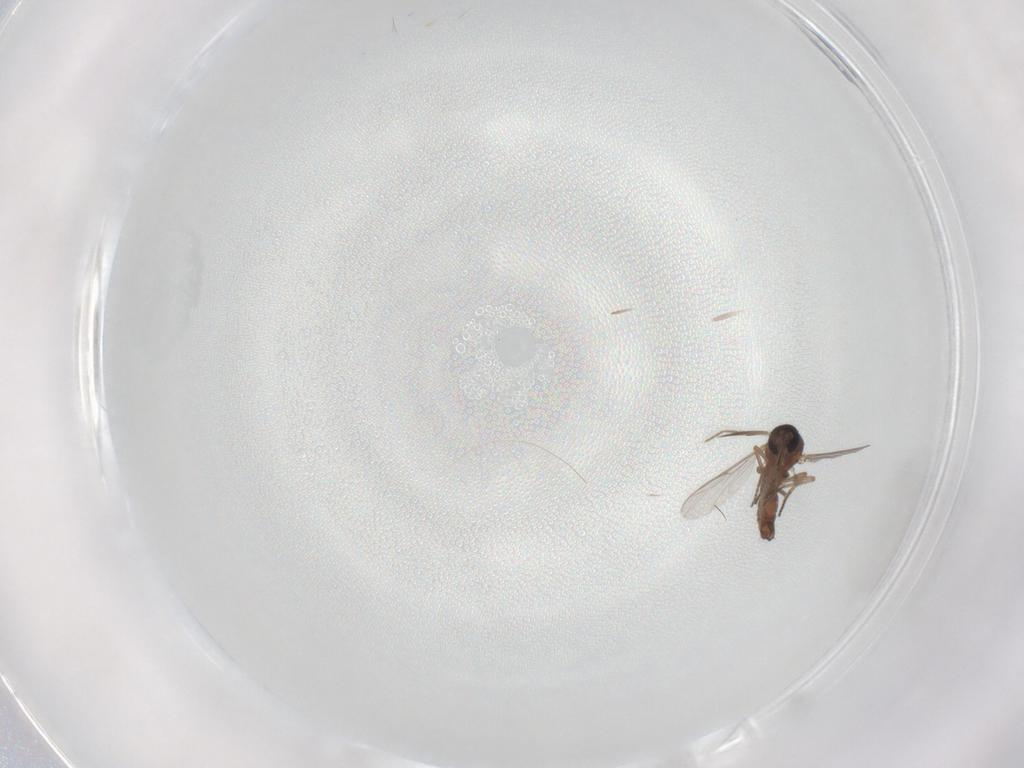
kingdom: Animalia
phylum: Arthropoda
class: Insecta
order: Diptera
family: Ceratopogonidae
